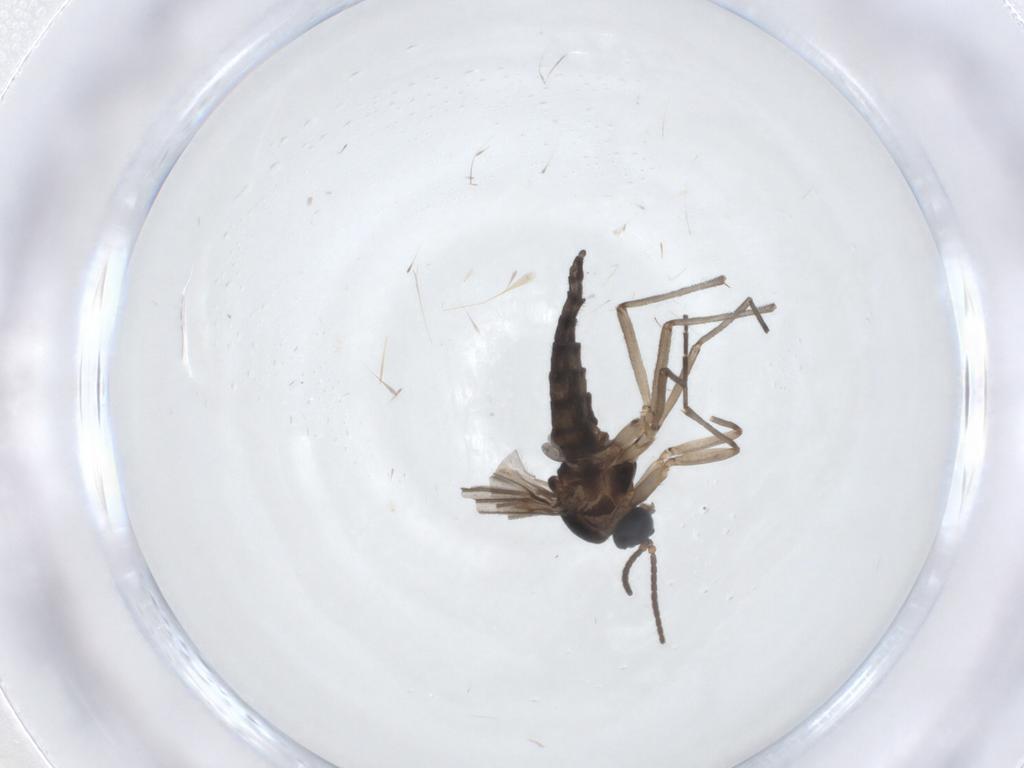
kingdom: Animalia
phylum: Arthropoda
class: Insecta
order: Diptera
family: Sciaridae
